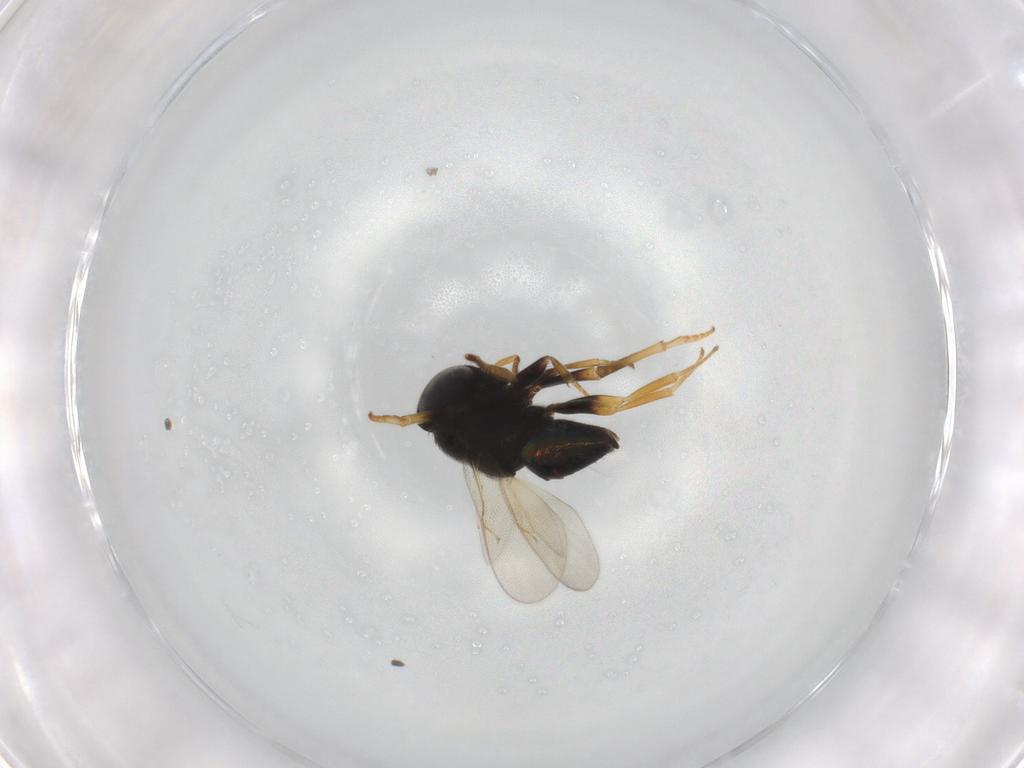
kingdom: Animalia
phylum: Arthropoda
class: Insecta
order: Hymenoptera
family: Encyrtidae
